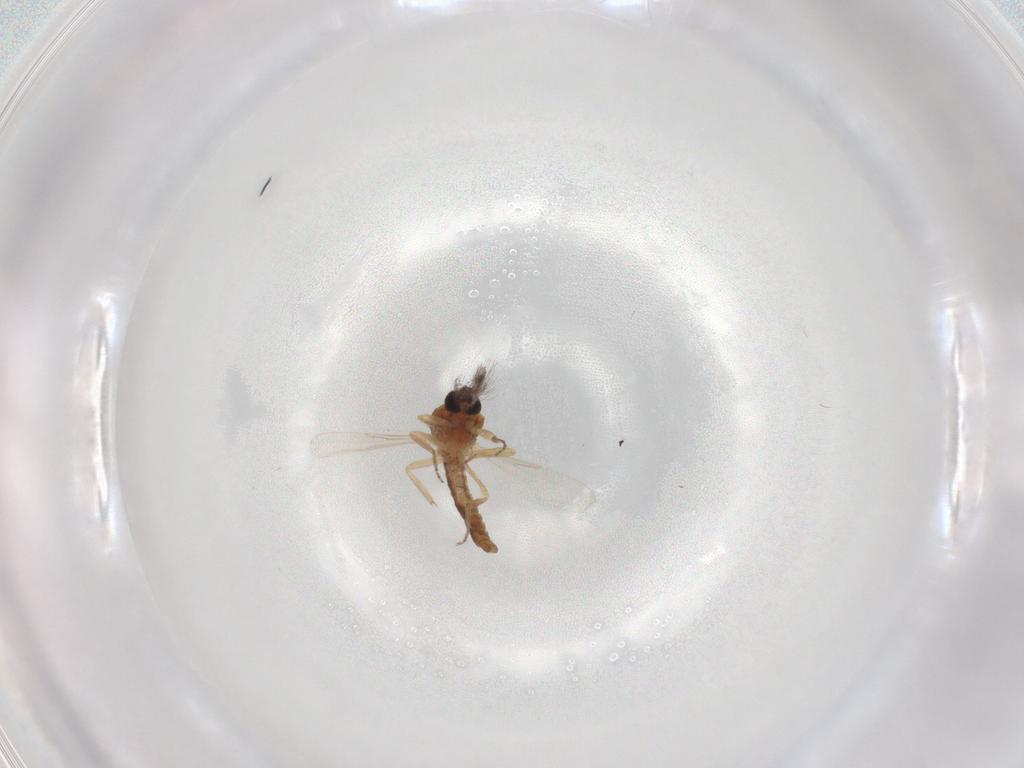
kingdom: Animalia
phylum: Arthropoda
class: Insecta
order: Diptera
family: Ceratopogonidae
